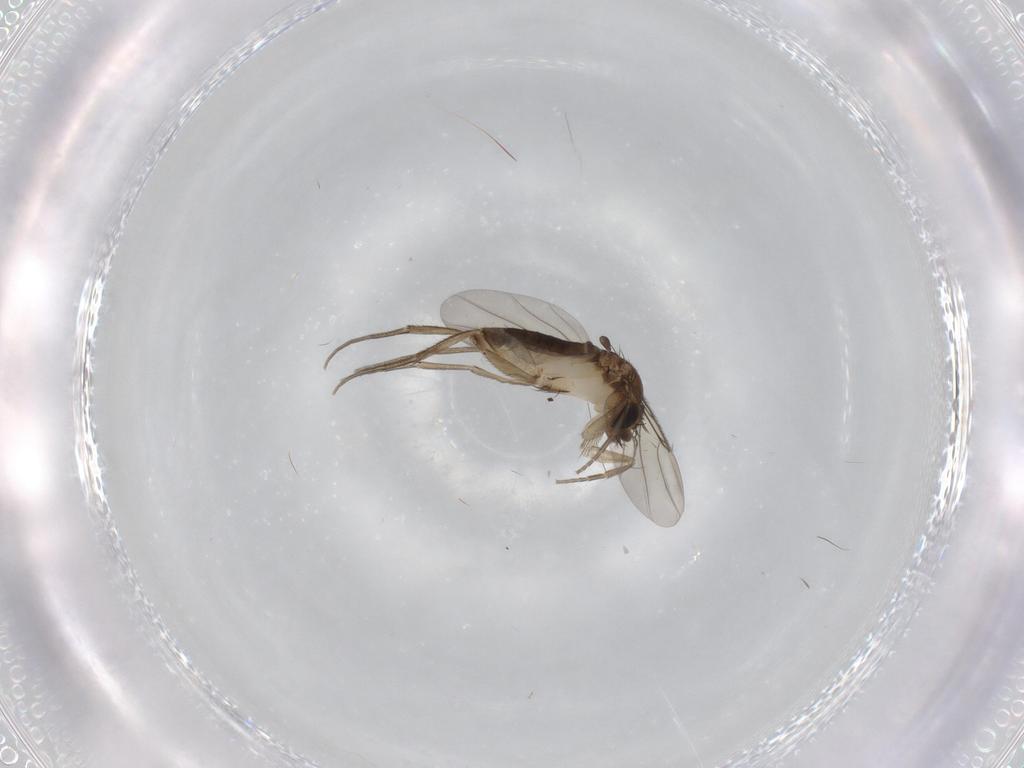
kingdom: Animalia
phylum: Arthropoda
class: Insecta
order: Diptera
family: Phoridae
